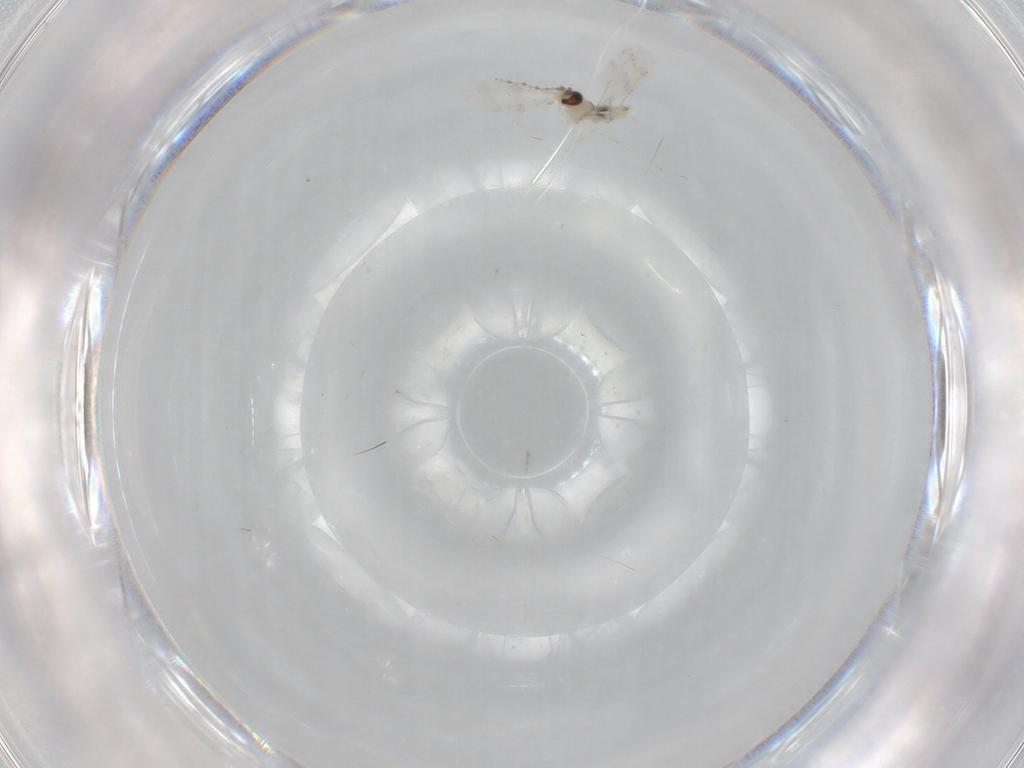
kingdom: Animalia
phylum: Arthropoda
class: Insecta
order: Diptera
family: Cecidomyiidae
